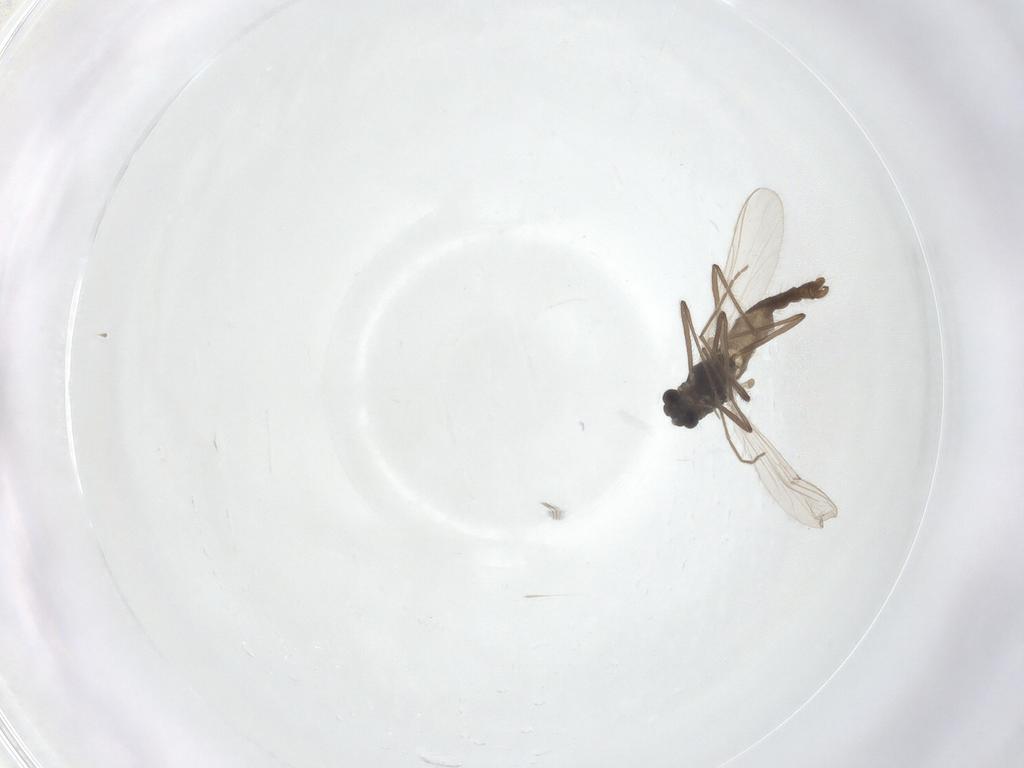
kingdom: Animalia
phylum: Arthropoda
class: Insecta
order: Diptera
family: Chironomidae
